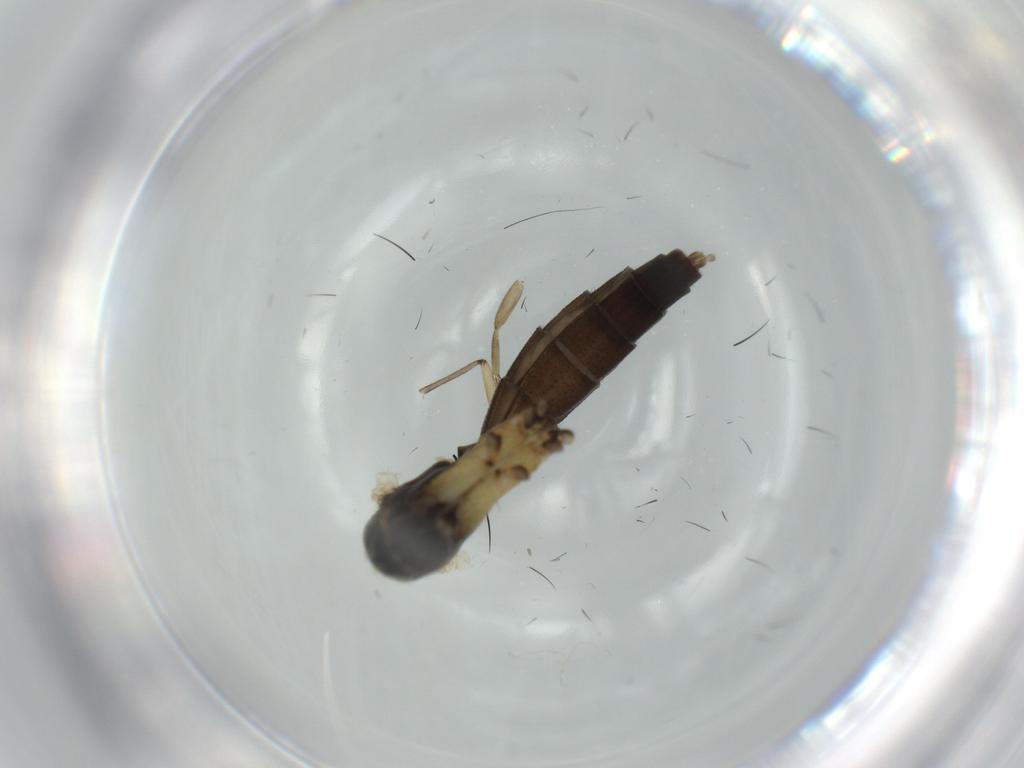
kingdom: Animalia
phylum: Arthropoda
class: Insecta
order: Diptera
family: Mycetophilidae
